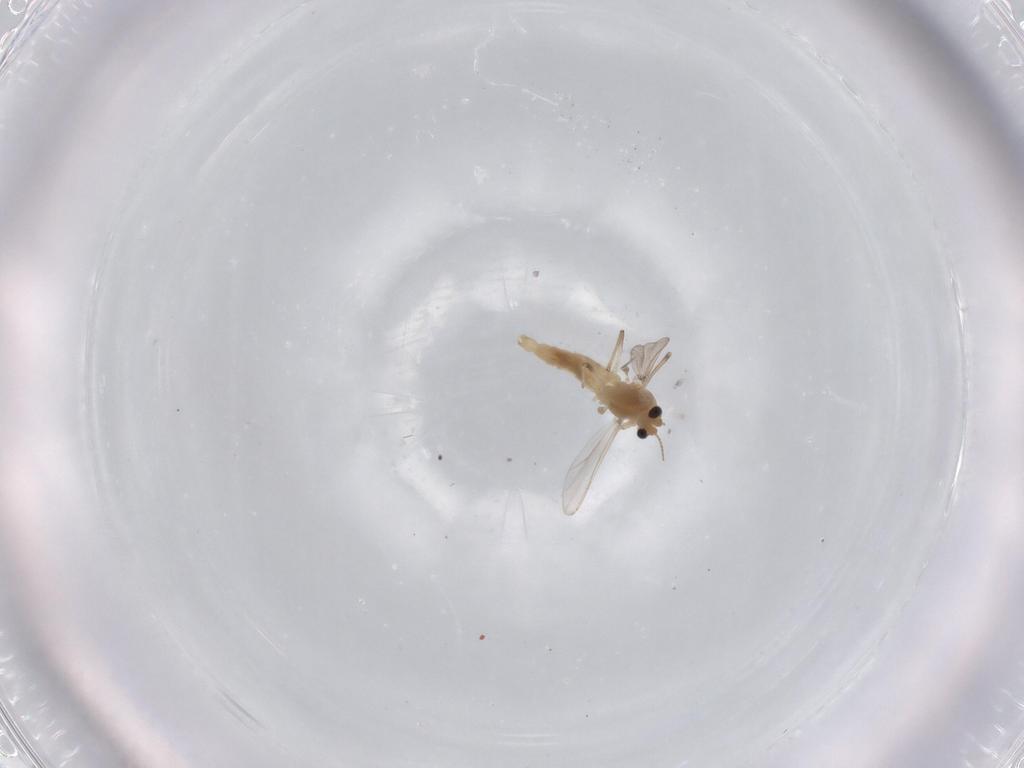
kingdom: Animalia
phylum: Arthropoda
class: Insecta
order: Diptera
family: Chironomidae
